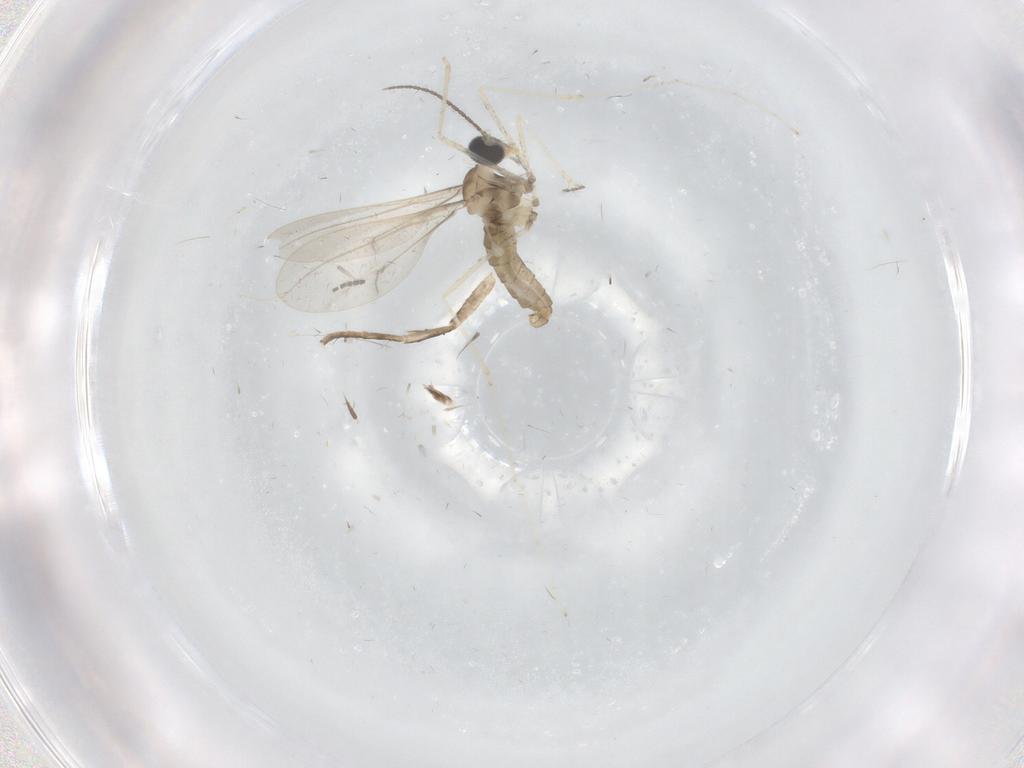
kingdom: Animalia
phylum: Arthropoda
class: Insecta
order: Diptera
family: Cecidomyiidae
